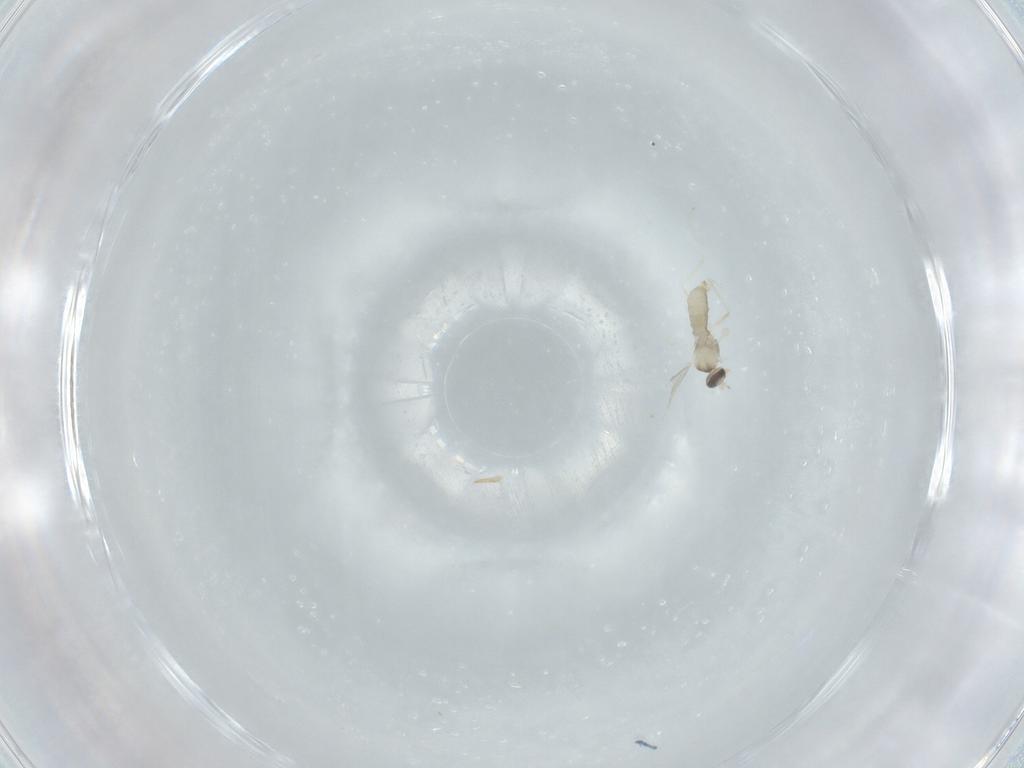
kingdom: Animalia
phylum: Arthropoda
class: Insecta
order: Diptera
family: Cecidomyiidae
